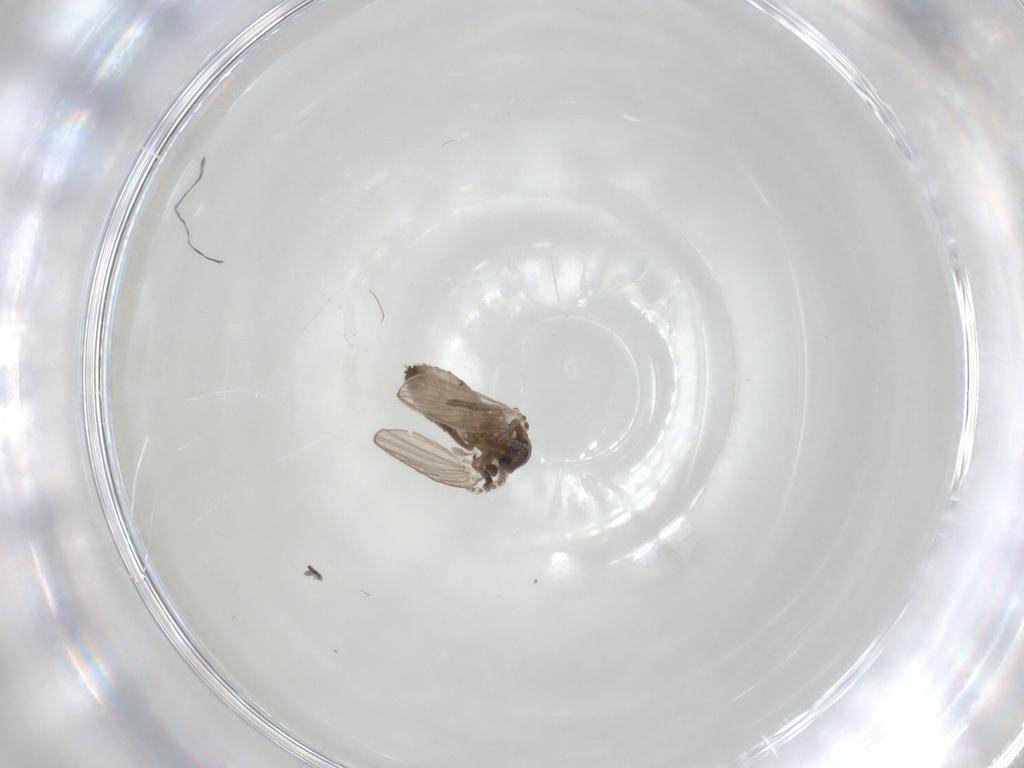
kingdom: Animalia
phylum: Arthropoda
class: Insecta
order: Diptera
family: Psychodidae
